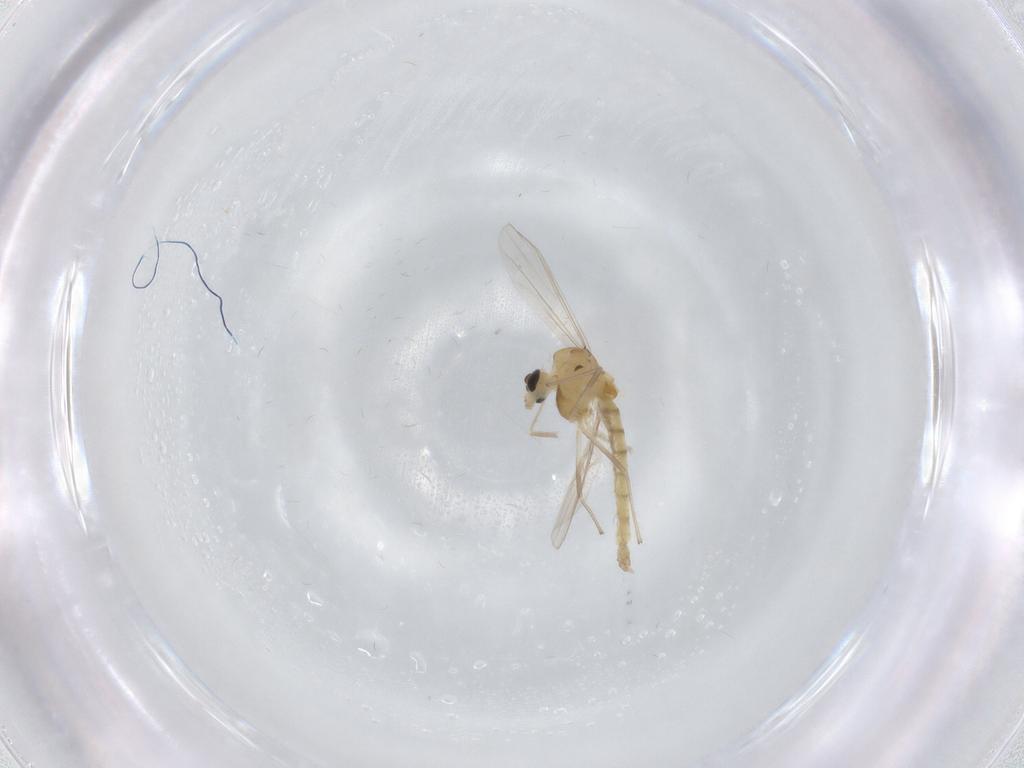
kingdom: Animalia
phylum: Arthropoda
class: Insecta
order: Diptera
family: Chironomidae
